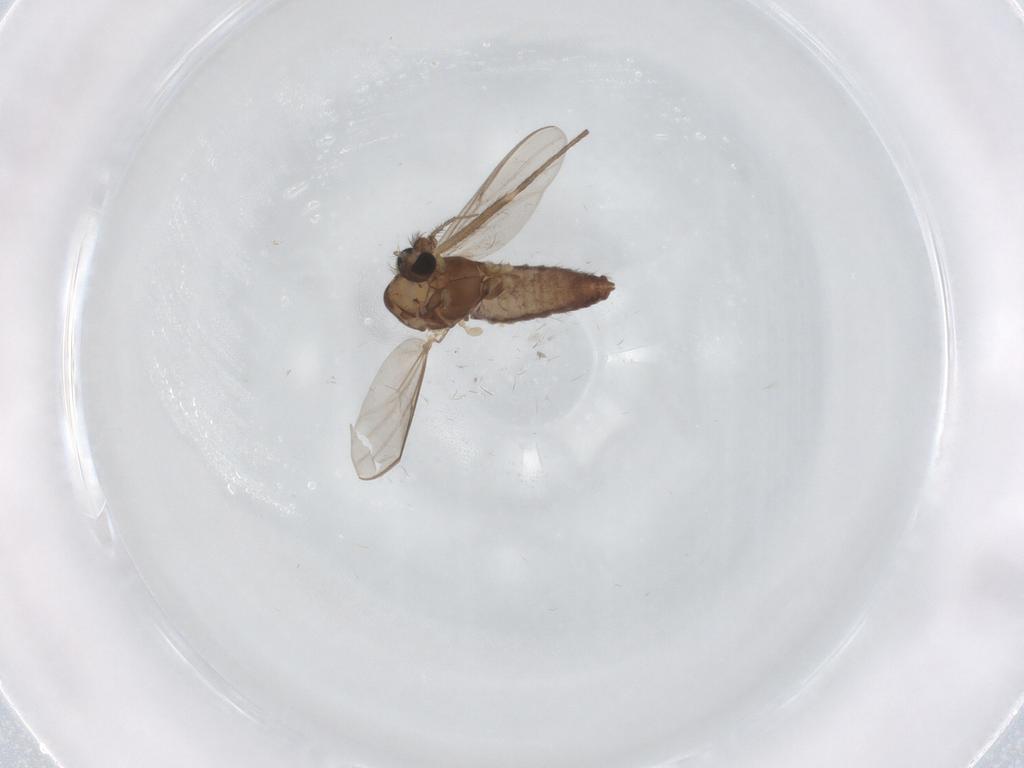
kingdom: Animalia
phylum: Arthropoda
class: Insecta
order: Diptera
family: Chironomidae
